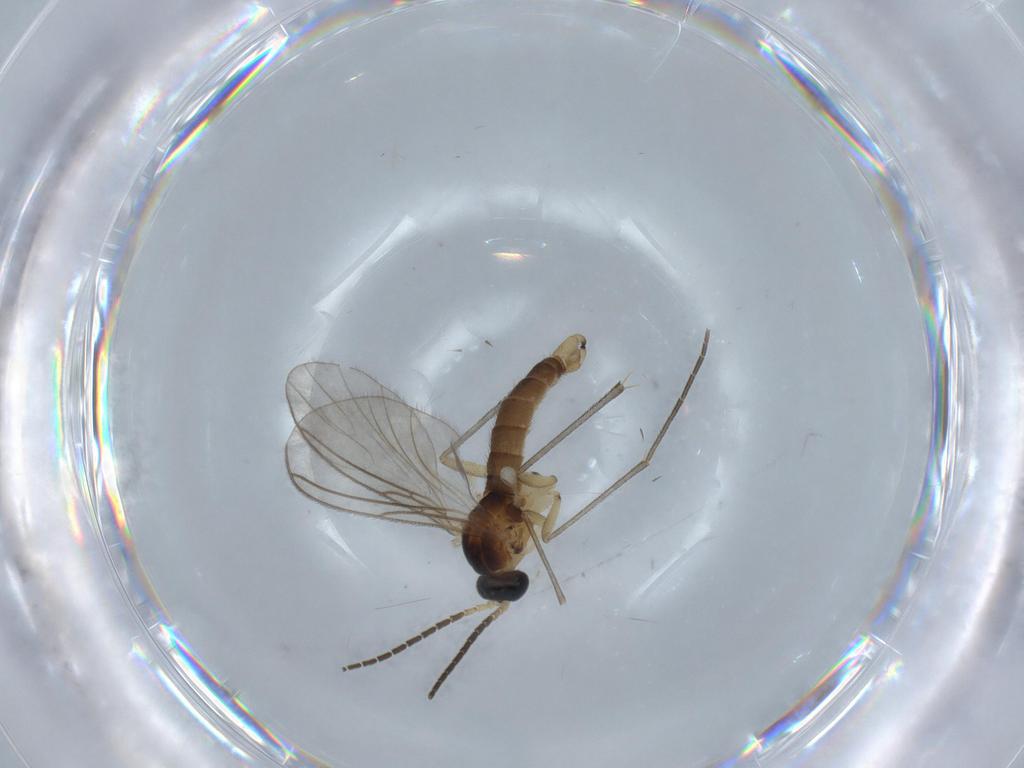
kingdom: Animalia
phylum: Arthropoda
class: Insecta
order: Diptera
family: Sciaridae
